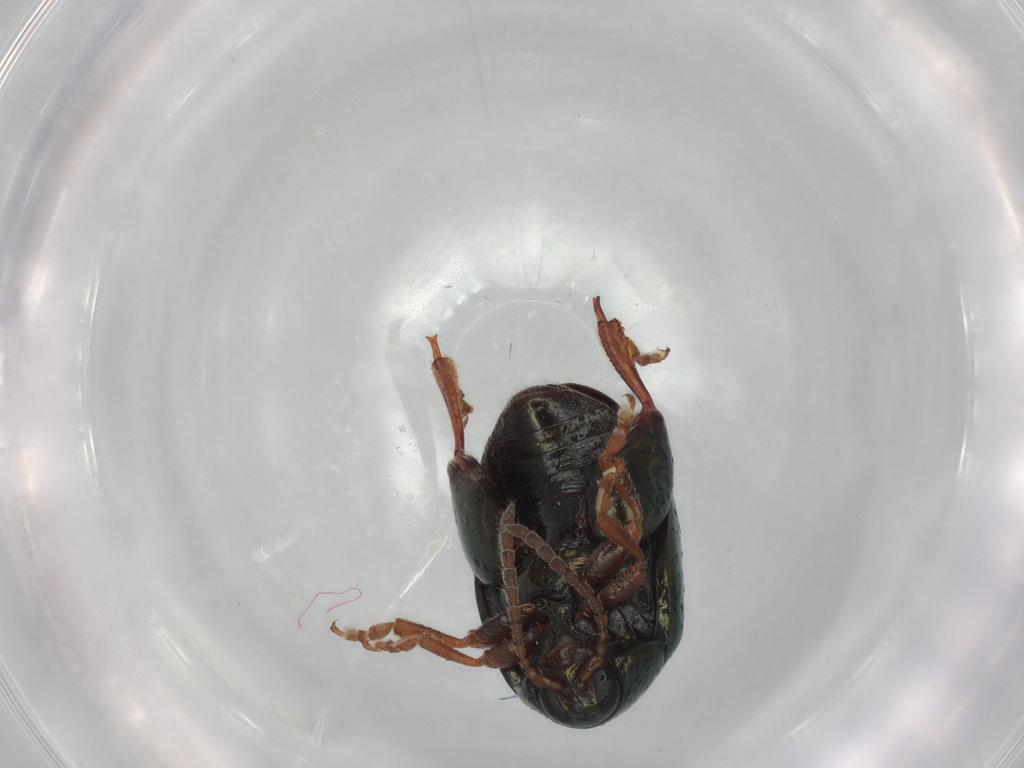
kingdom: Animalia
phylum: Arthropoda
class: Insecta
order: Coleoptera
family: Chrysomelidae
